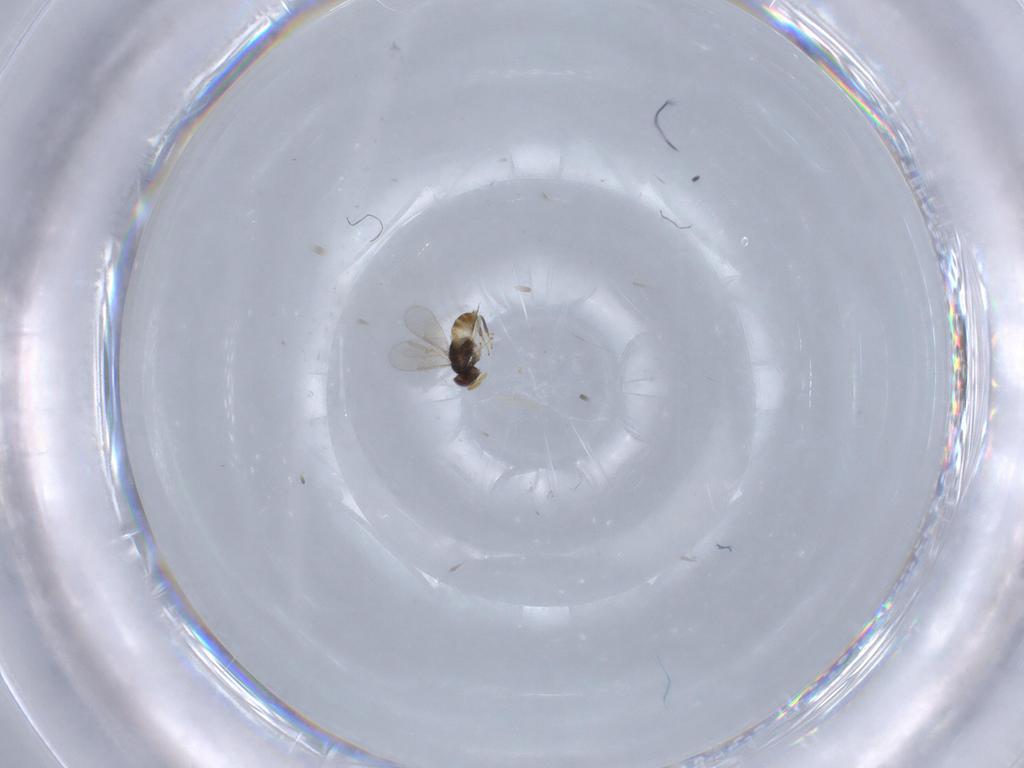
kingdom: Animalia
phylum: Arthropoda
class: Insecta
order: Hymenoptera
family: Aphelinidae
